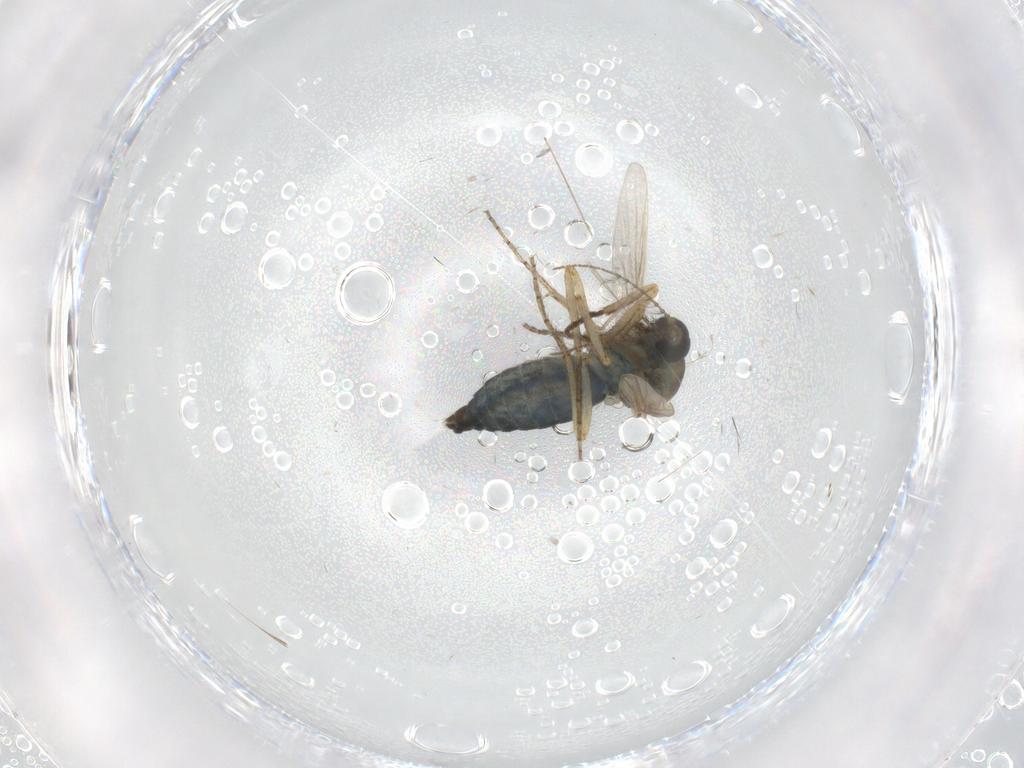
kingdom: Animalia
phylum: Arthropoda
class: Insecta
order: Diptera
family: Ceratopogonidae
